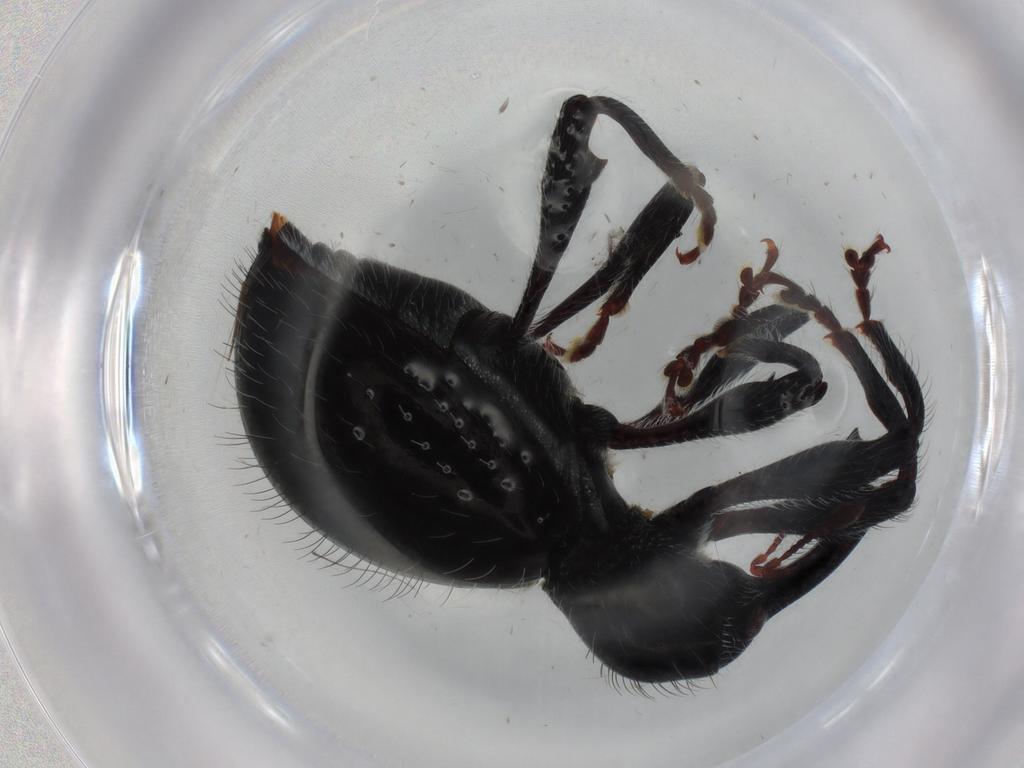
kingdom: Animalia
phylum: Arthropoda
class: Insecta
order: Coleoptera
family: Curculionidae
